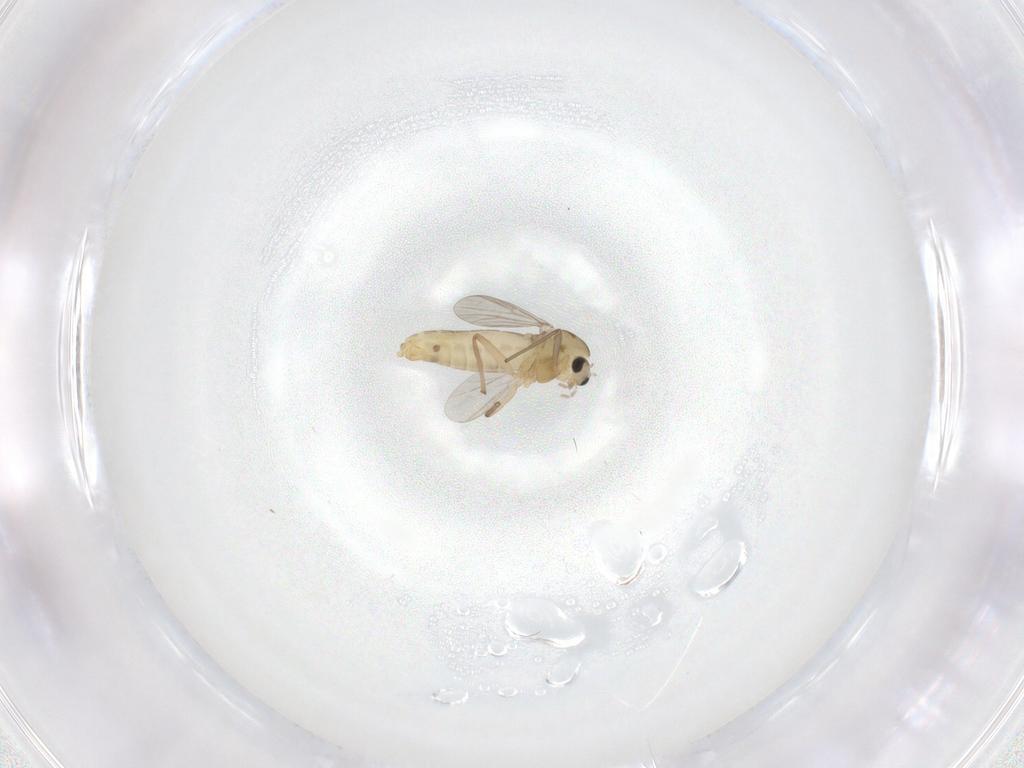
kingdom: Animalia
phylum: Arthropoda
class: Insecta
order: Diptera
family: Chironomidae
